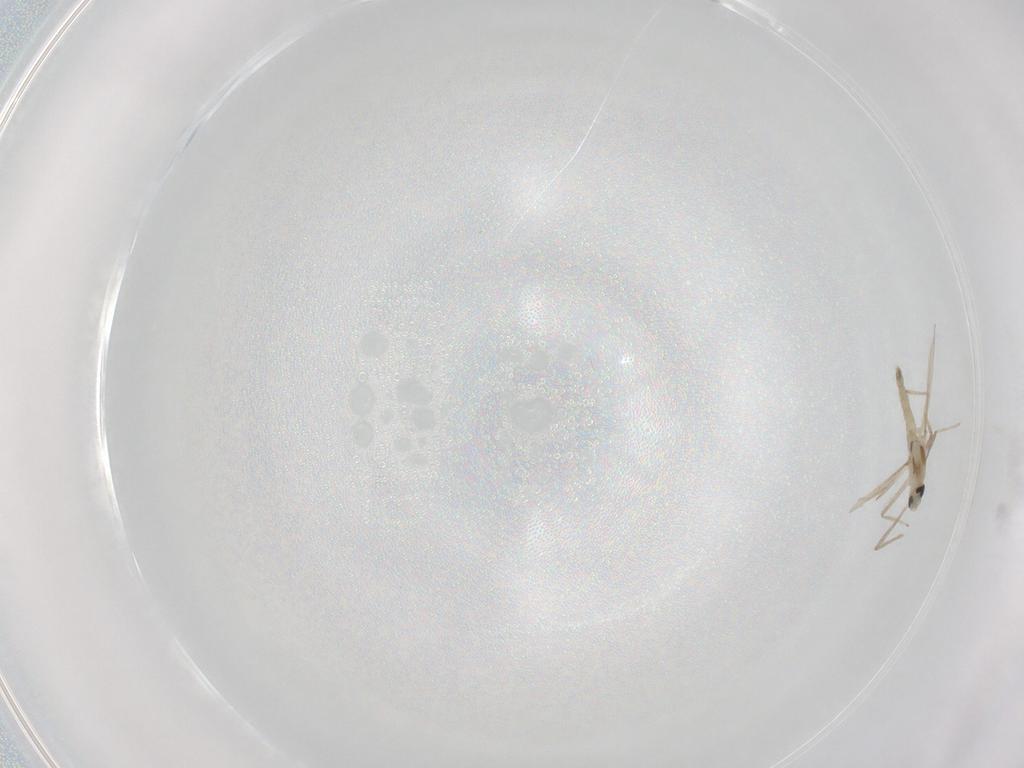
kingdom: Animalia
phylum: Arthropoda
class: Insecta
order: Diptera
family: Chironomidae
